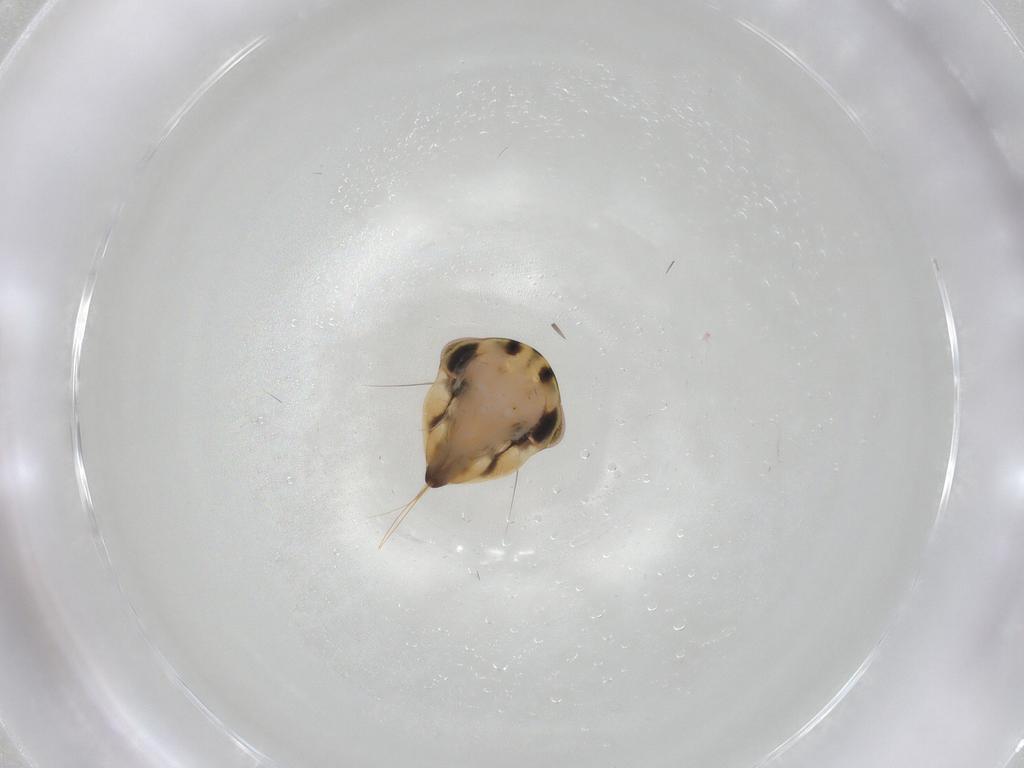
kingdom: Animalia
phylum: Arthropoda
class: Insecta
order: Hemiptera
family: Cicadellidae
